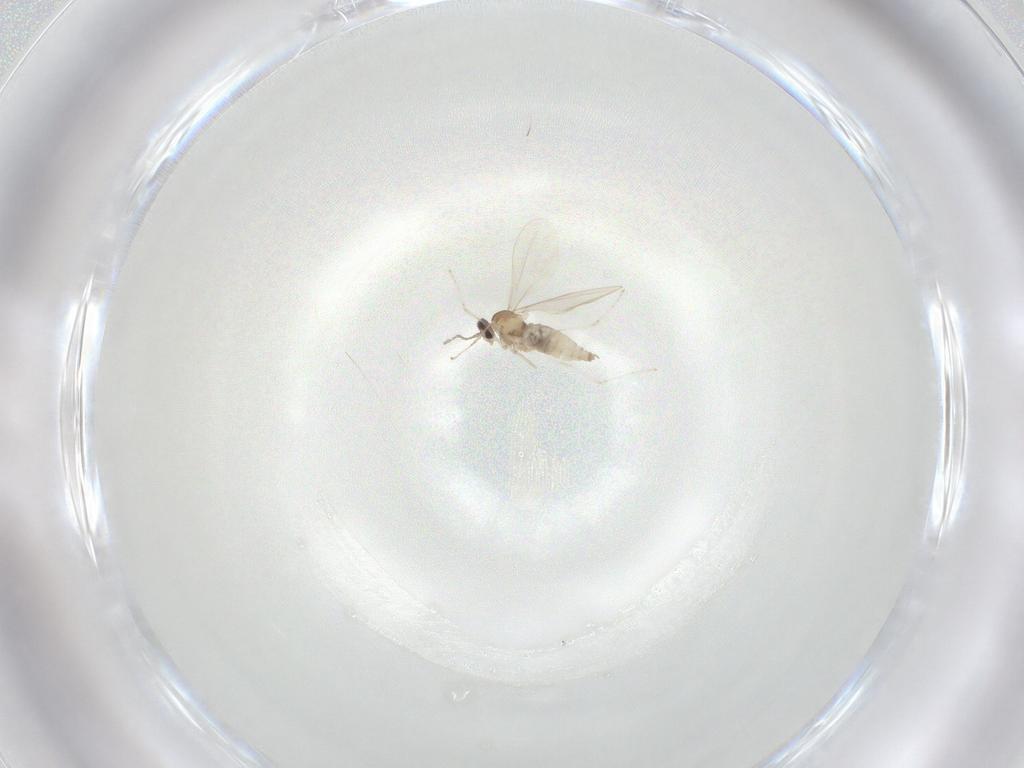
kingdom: Animalia
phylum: Arthropoda
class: Insecta
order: Diptera
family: Cecidomyiidae
